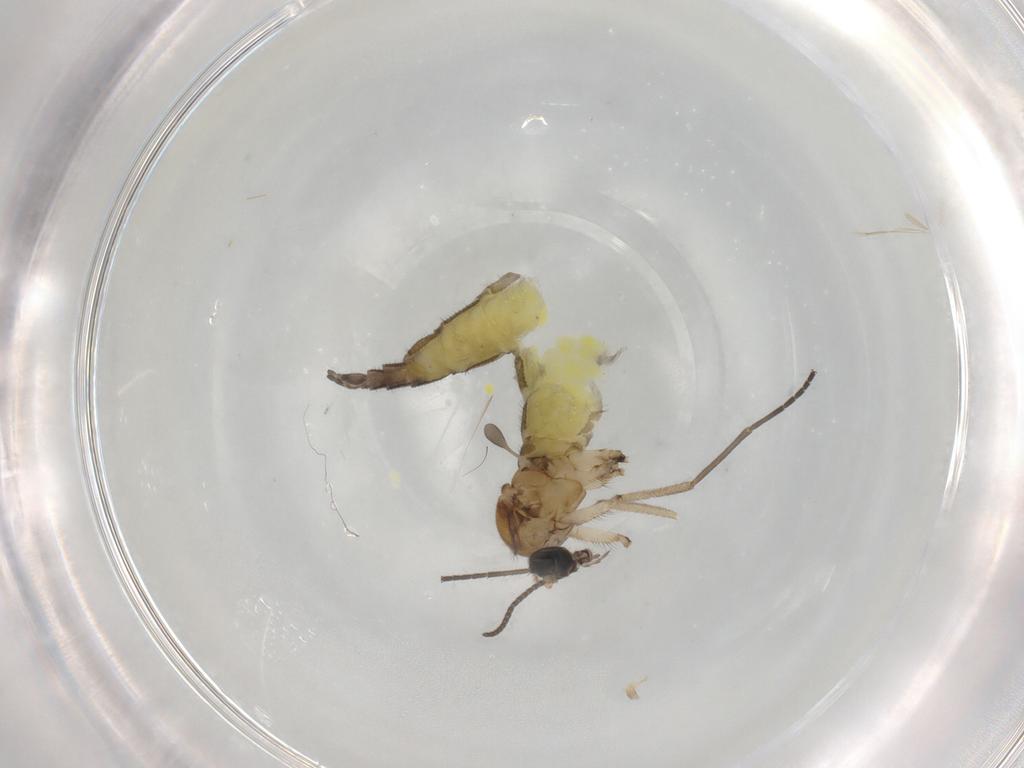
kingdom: Animalia
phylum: Arthropoda
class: Insecta
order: Diptera
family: Sciaridae
